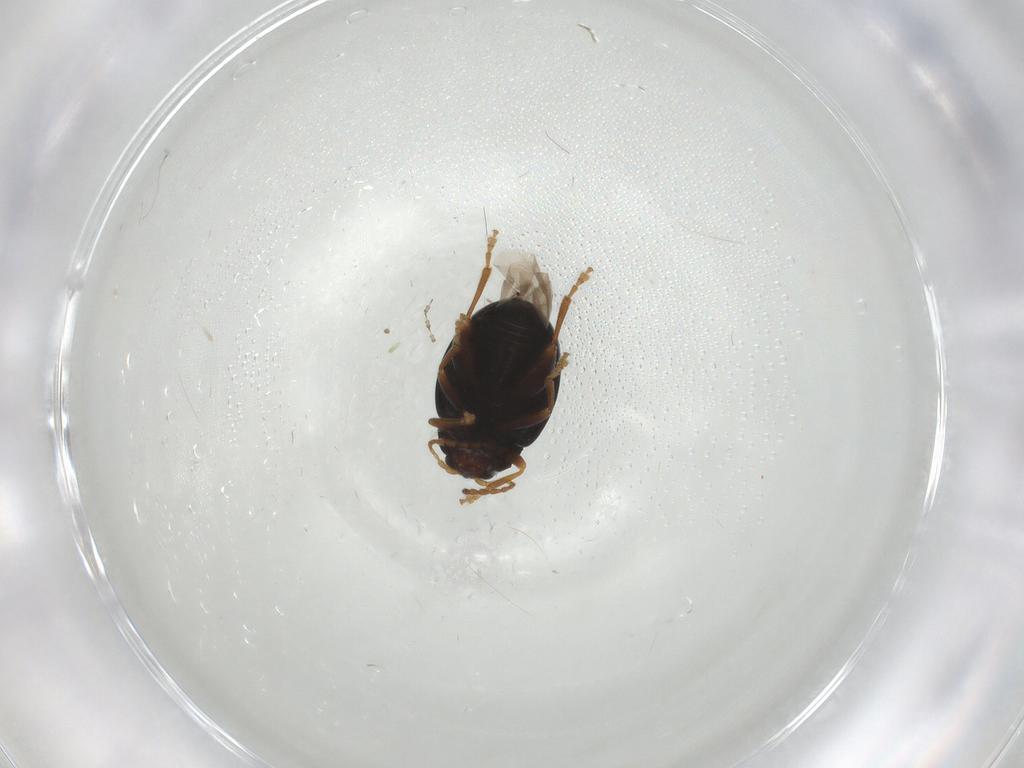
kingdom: Animalia
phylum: Arthropoda
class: Insecta
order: Coleoptera
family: Chrysomelidae
